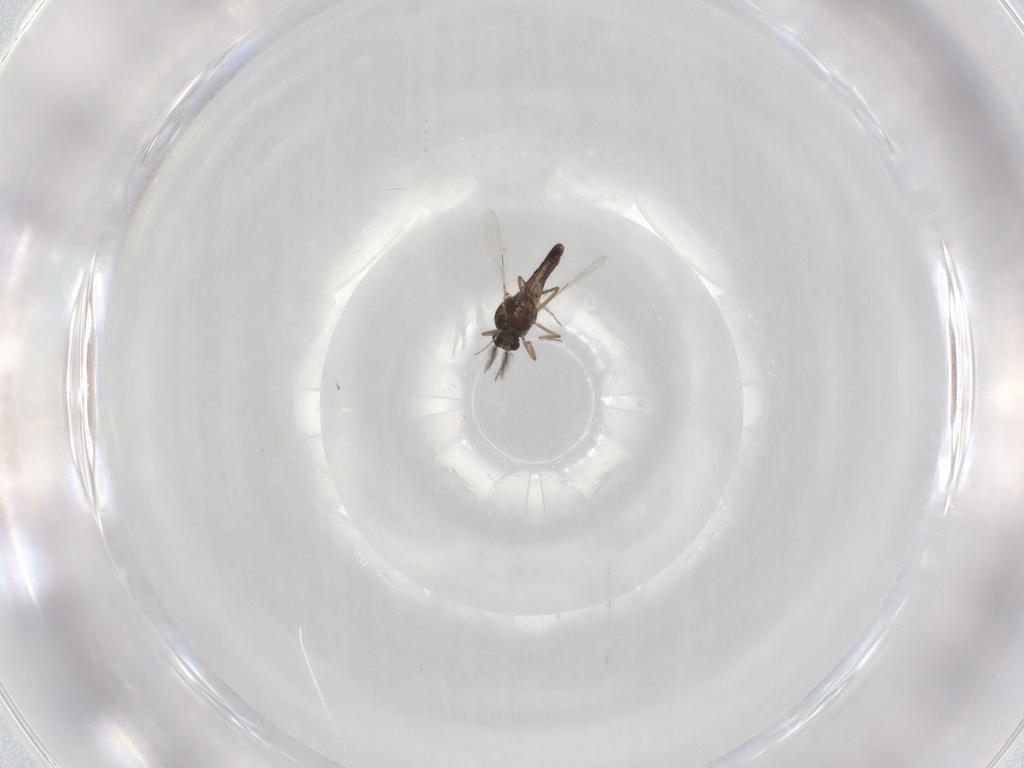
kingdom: Animalia
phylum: Arthropoda
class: Insecta
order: Diptera
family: Ceratopogonidae
